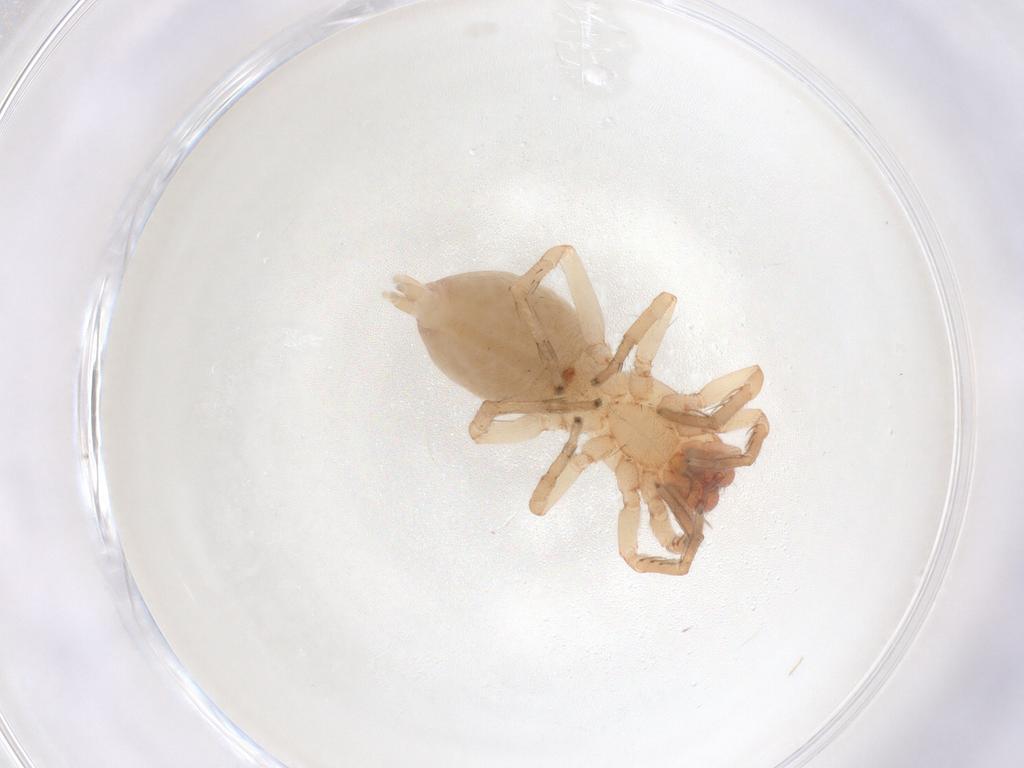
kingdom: Animalia
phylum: Arthropoda
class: Arachnida
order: Araneae
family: Clubionidae
